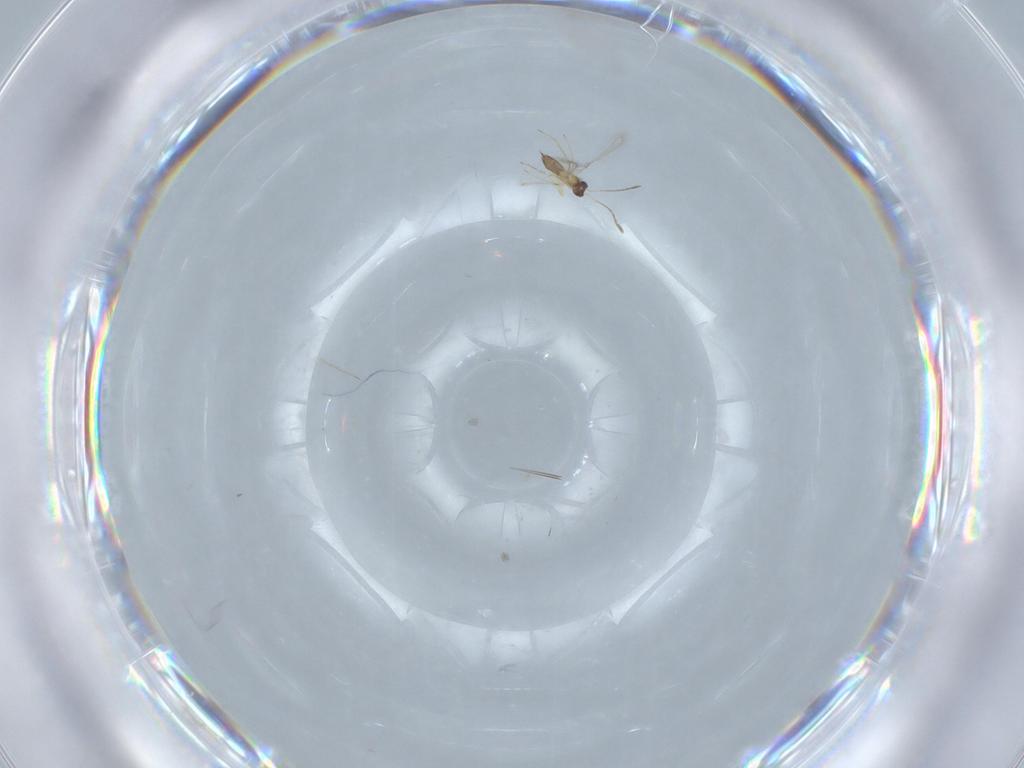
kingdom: Animalia
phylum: Arthropoda
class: Insecta
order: Hymenoptera
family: Mymaridae
